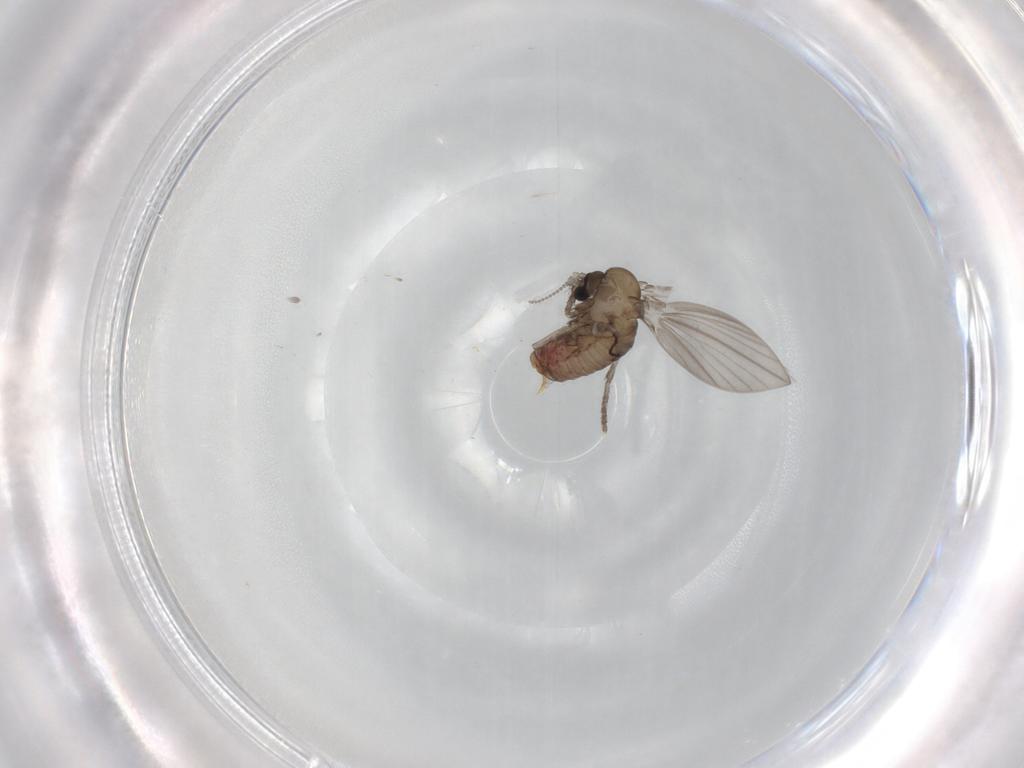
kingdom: Animalia
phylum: Arthropoda
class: Insecta
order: Diptera
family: Psychodidae
